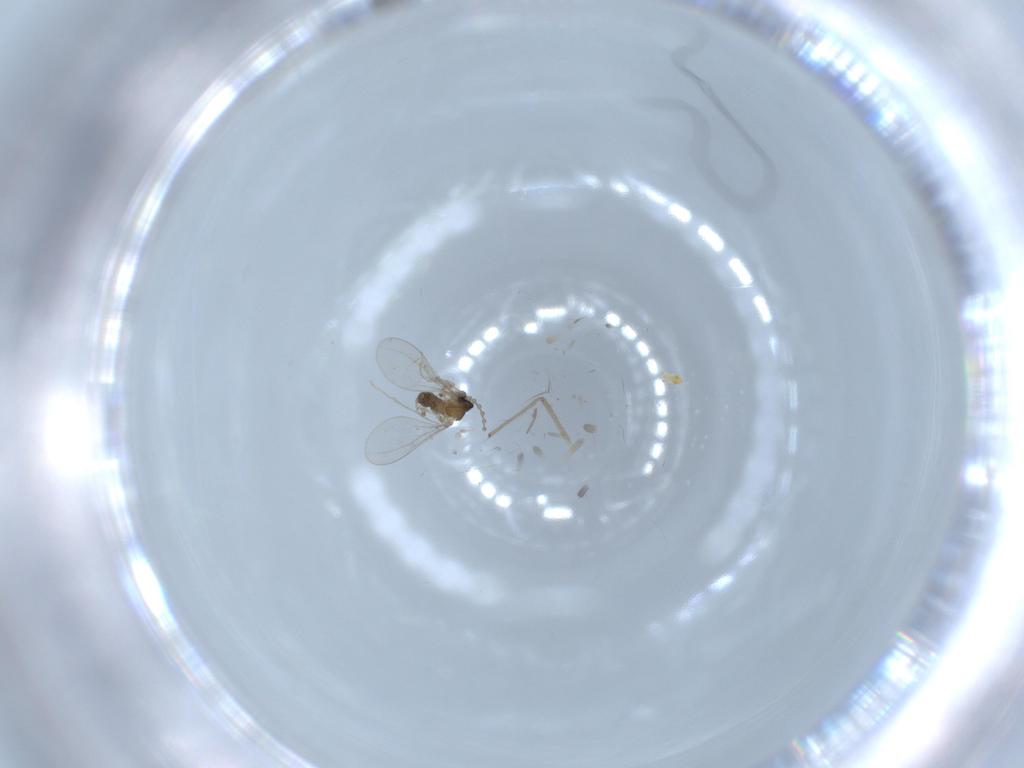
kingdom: Animalia
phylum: Arthropoda
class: Insecta
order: Diptera
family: Cecidomyiidae
